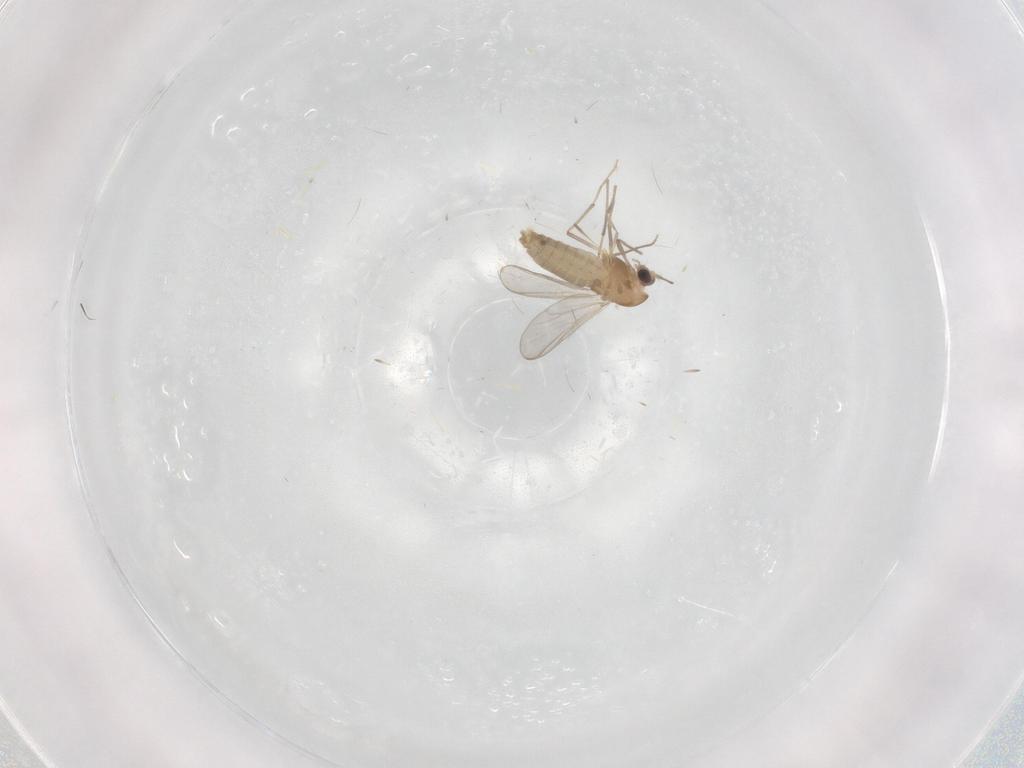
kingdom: Animalia
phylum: Arthropoda
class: Insecta
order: Diptera
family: Chironomidae
